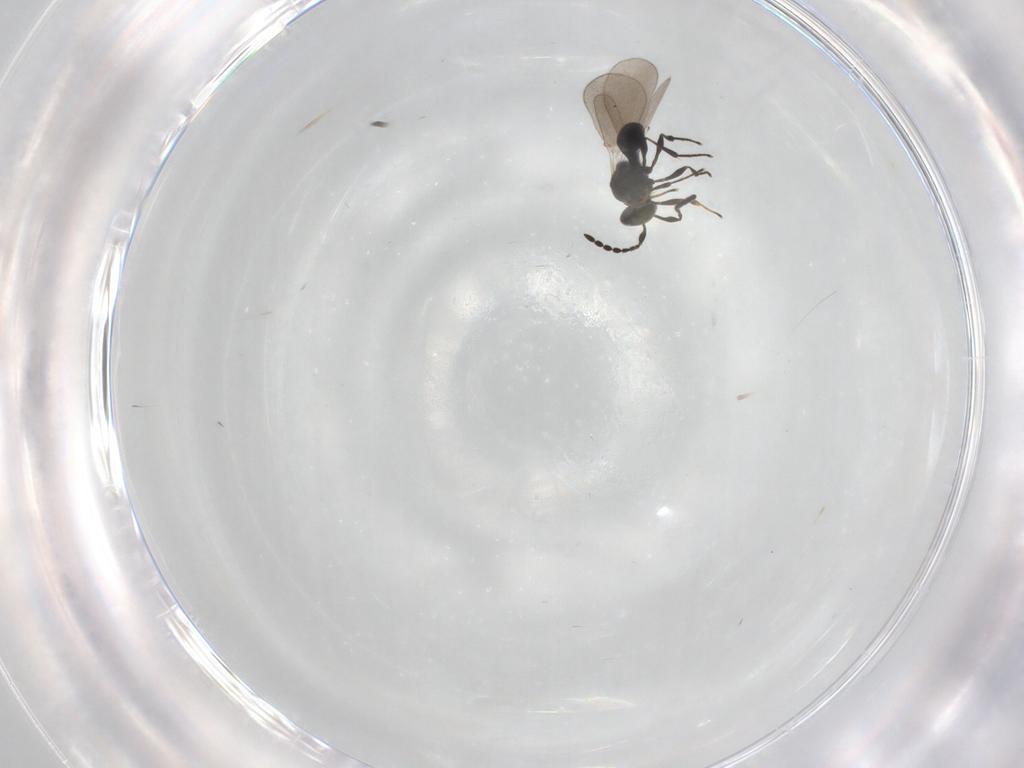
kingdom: Animalia
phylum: Arthropoda
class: Insecta
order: Hymenoptera
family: Platygastridae
